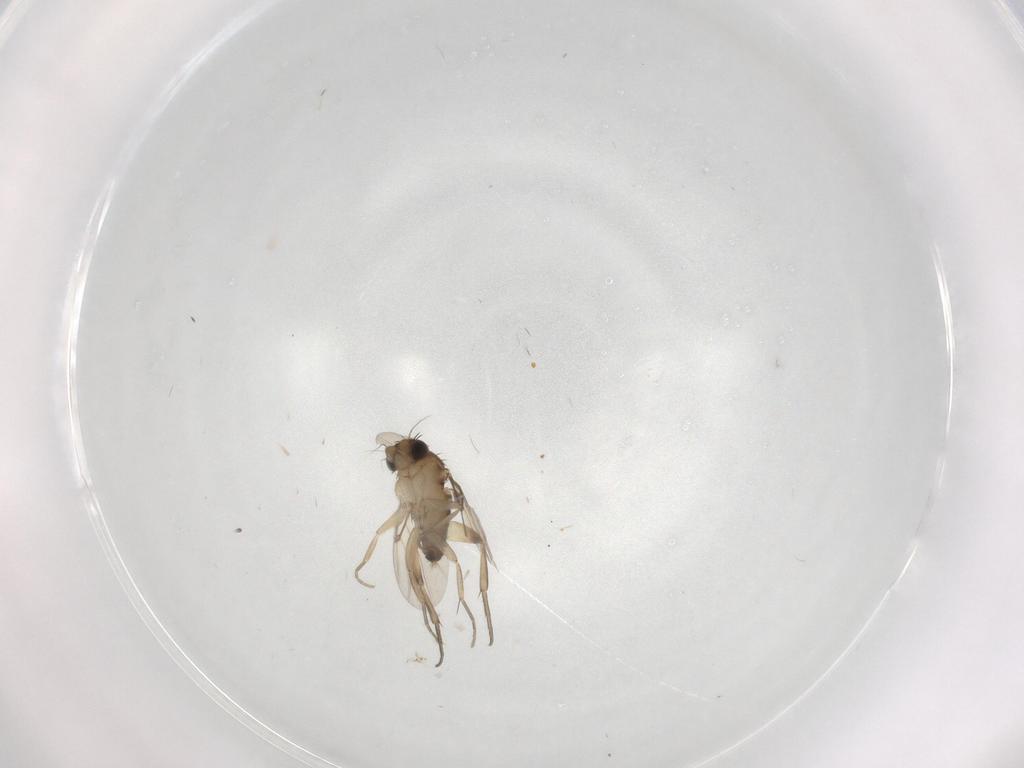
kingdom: Animalia
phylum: Arthropoda
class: Insecta
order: Diptera
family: Phoridae
